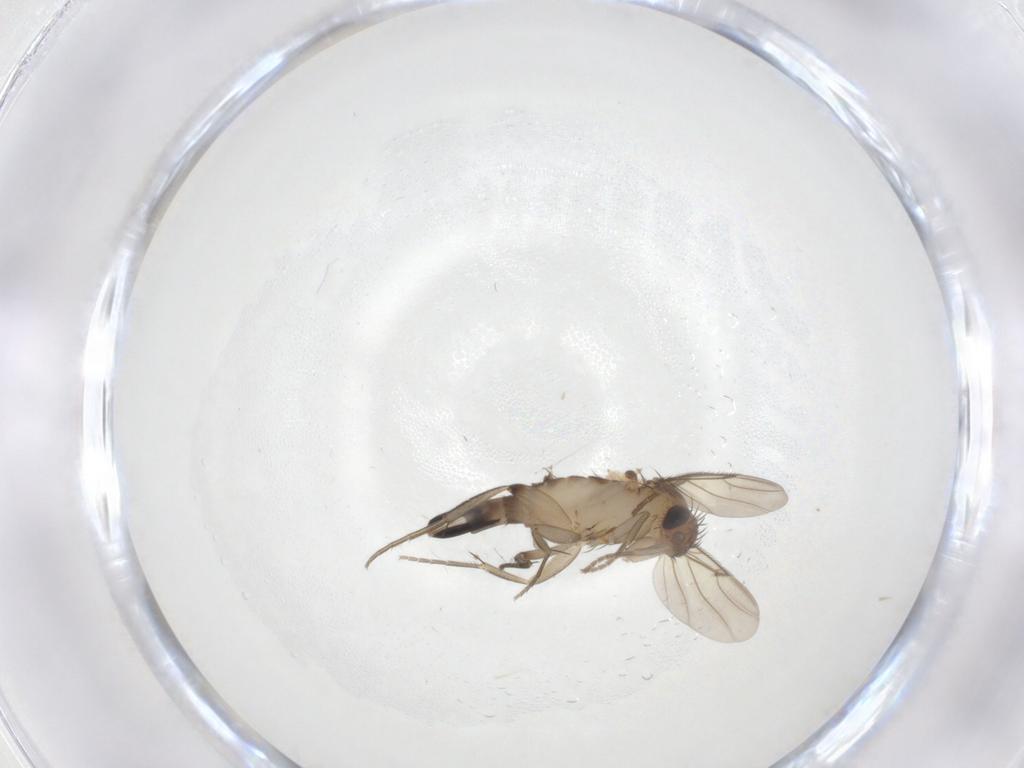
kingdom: Animalia
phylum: Arthropoda
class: Insecta
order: Diptera
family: Phoridae
